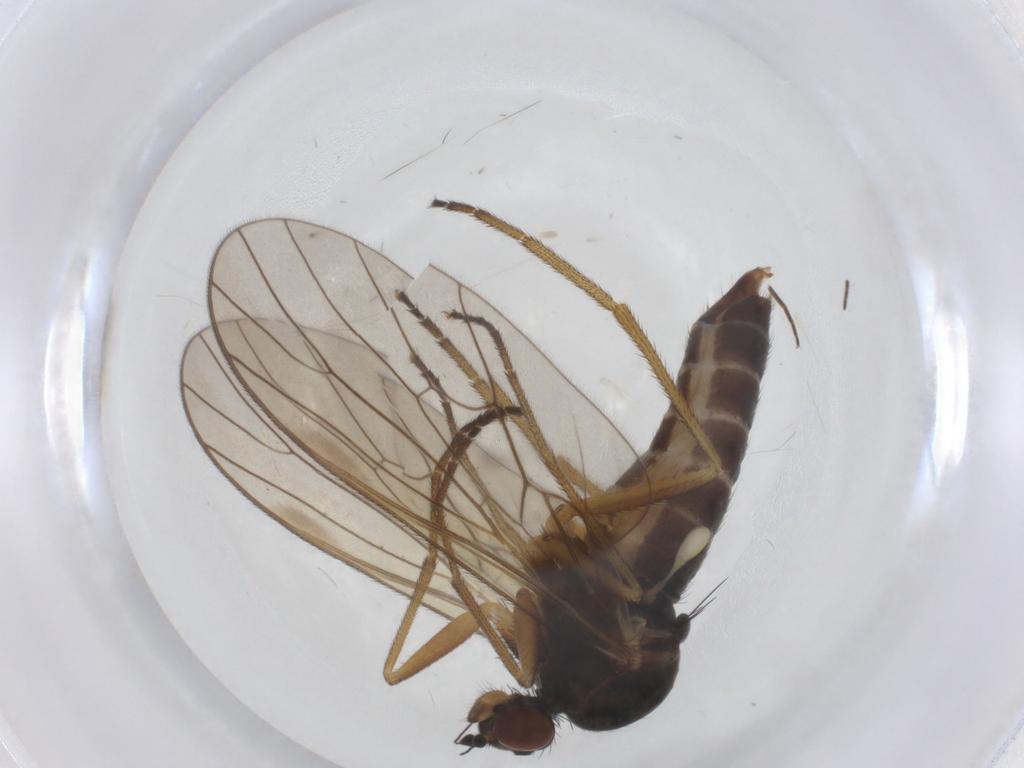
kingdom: Animalia
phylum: Arthropoda
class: Insecta
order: Diptera
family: Brachystomatidae
